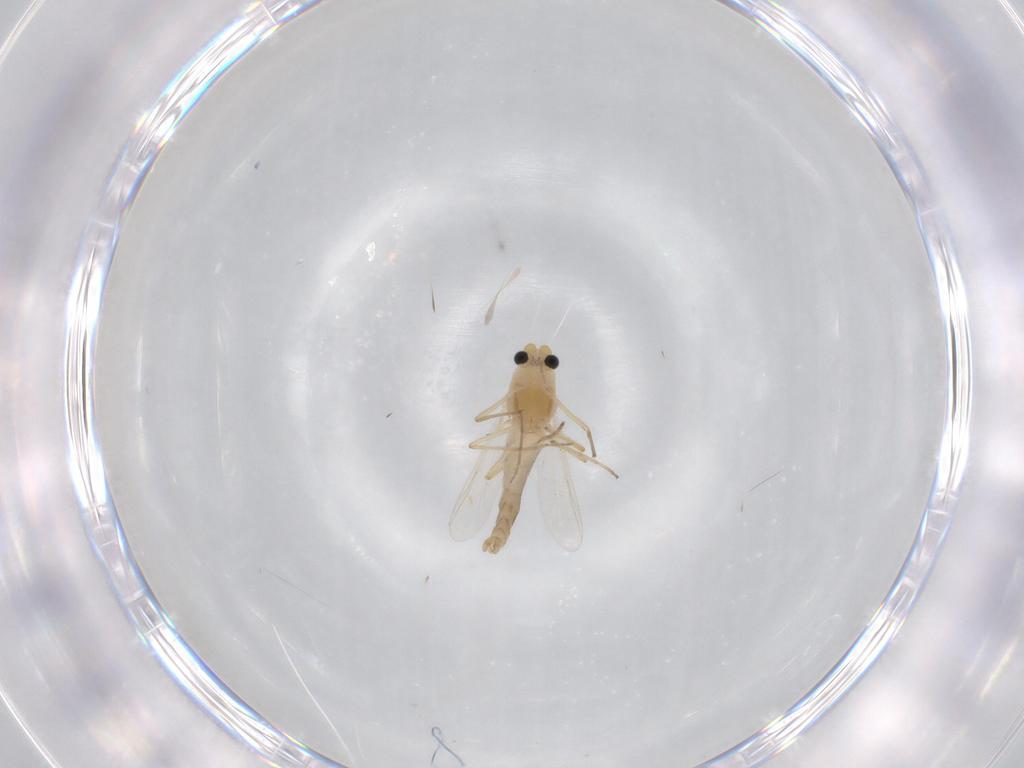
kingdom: Animalia
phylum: Arthropoda
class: Insecta
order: Diptera
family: Chironomidae
